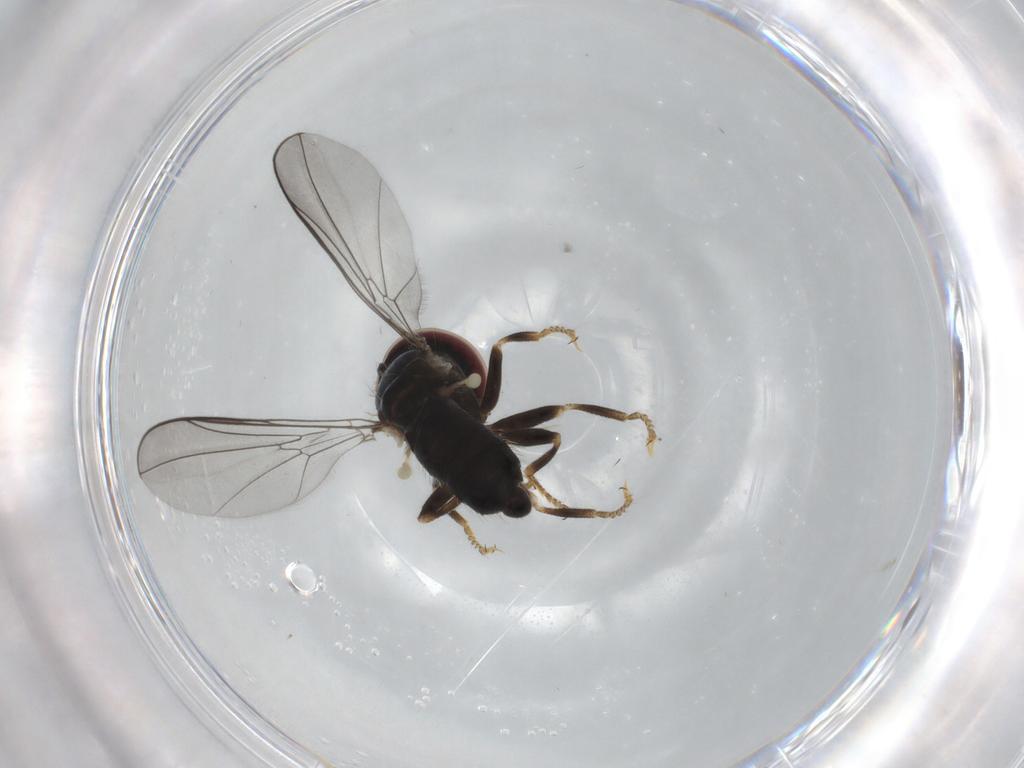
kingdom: Animalia
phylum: Arthropoda
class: Insecta
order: Diptera
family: Pipunculidae
